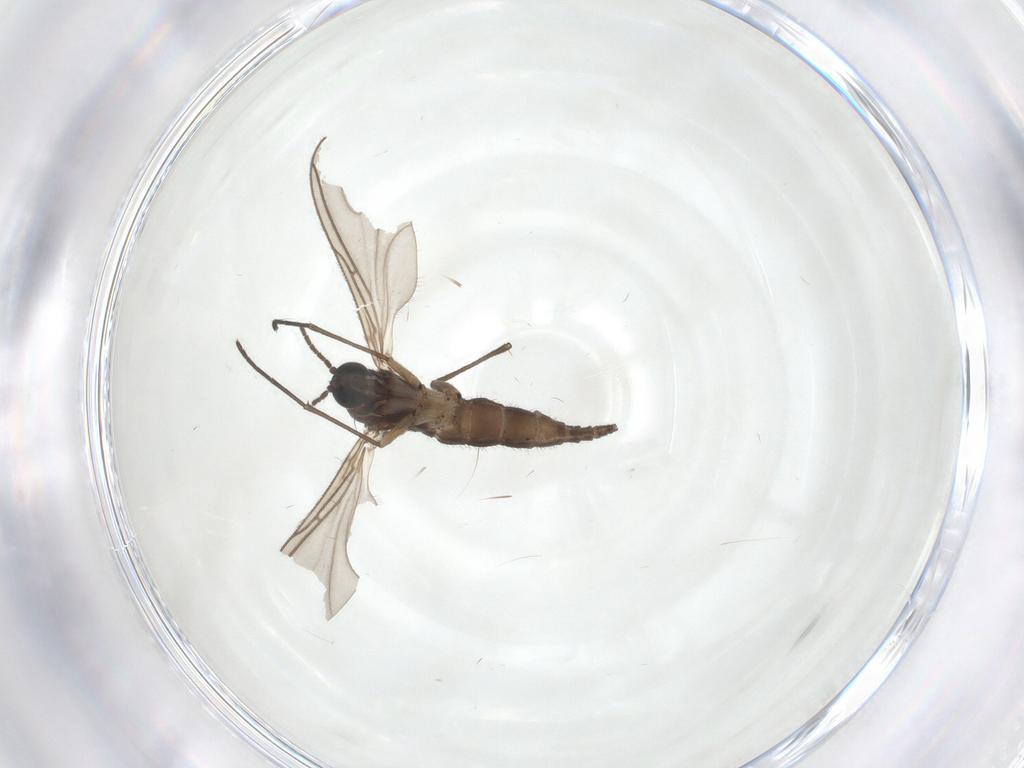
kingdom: Animalia
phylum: Arthropoda
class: Insecta
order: Diptera
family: Sciaridae
